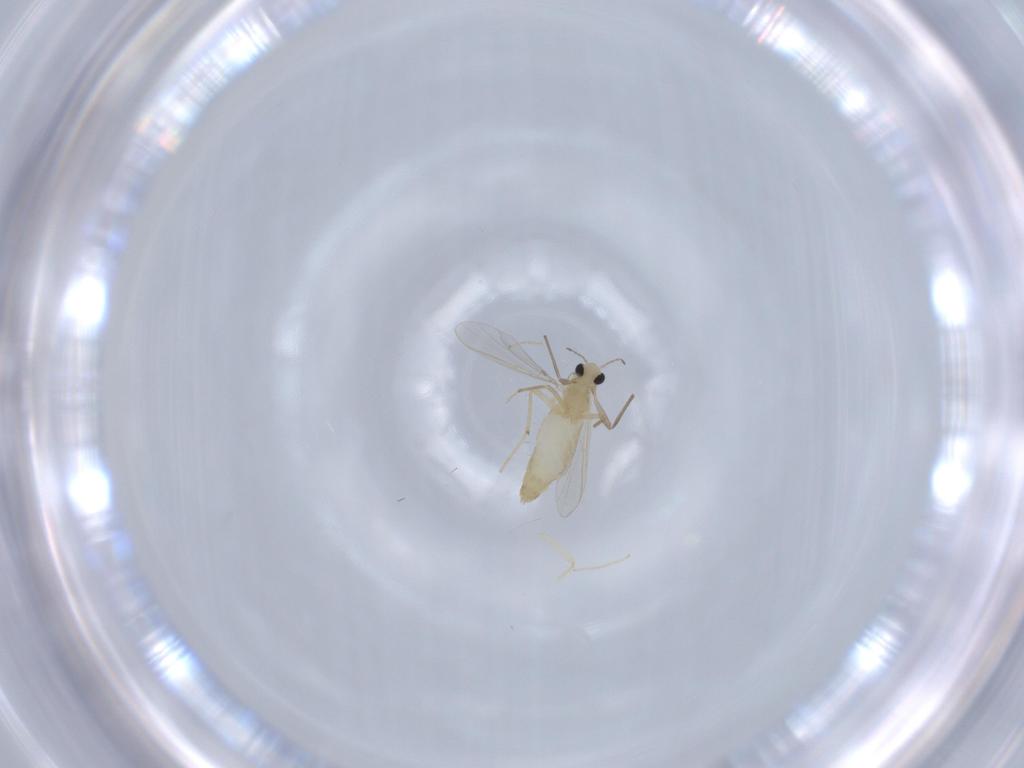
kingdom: Animalia
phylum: Arthropoda
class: Insecta
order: Diptera
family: Chironomidae
